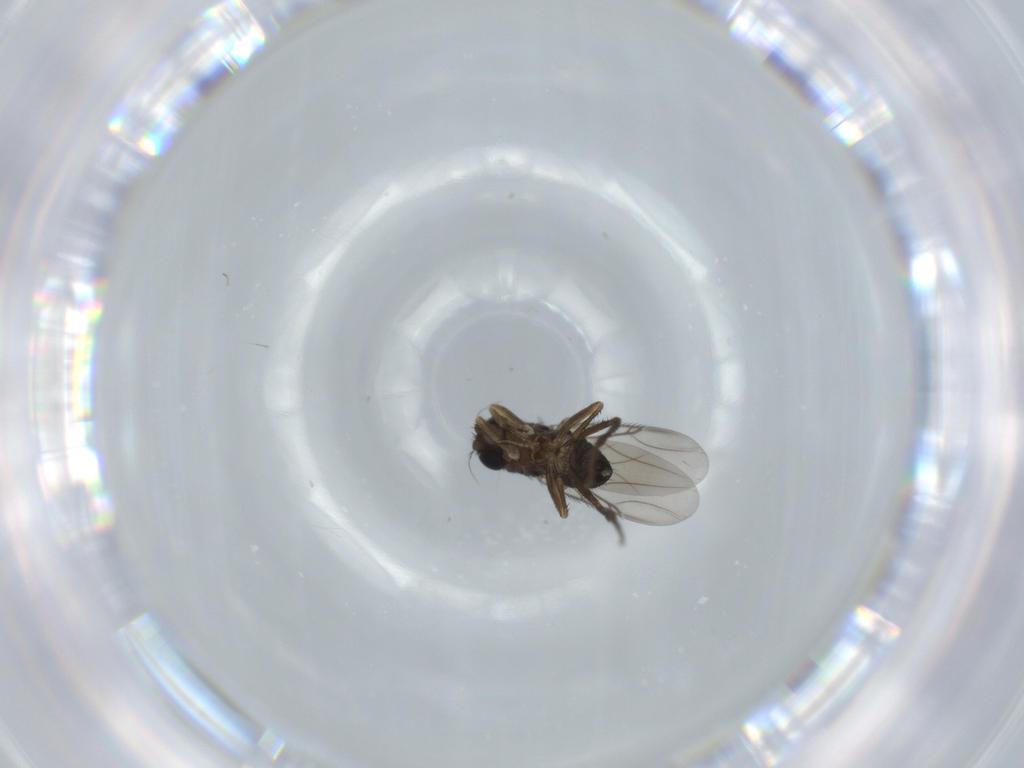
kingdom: Animalia
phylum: Arthropoda
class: Insecta
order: Diptera
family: Phoridae
